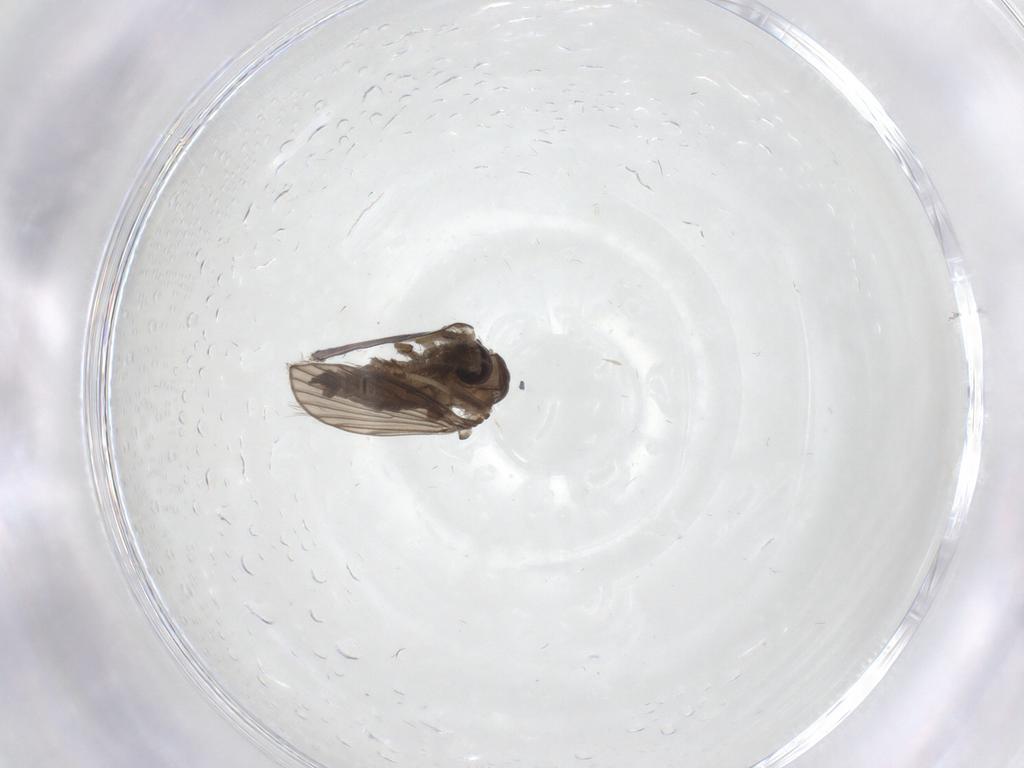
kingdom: Animalia
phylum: Arthropoda
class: Insecta
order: Diptera
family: Psychodidae
